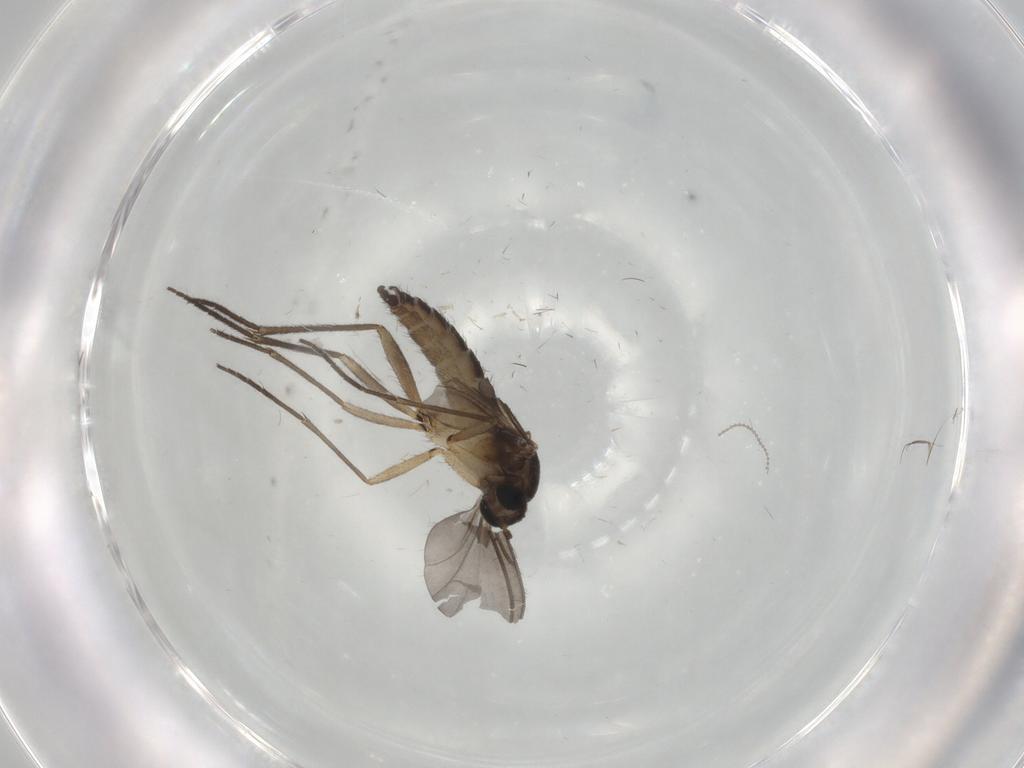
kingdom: Animalia
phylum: Arthropoda
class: Insecta
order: Diptera
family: Sciaridae
